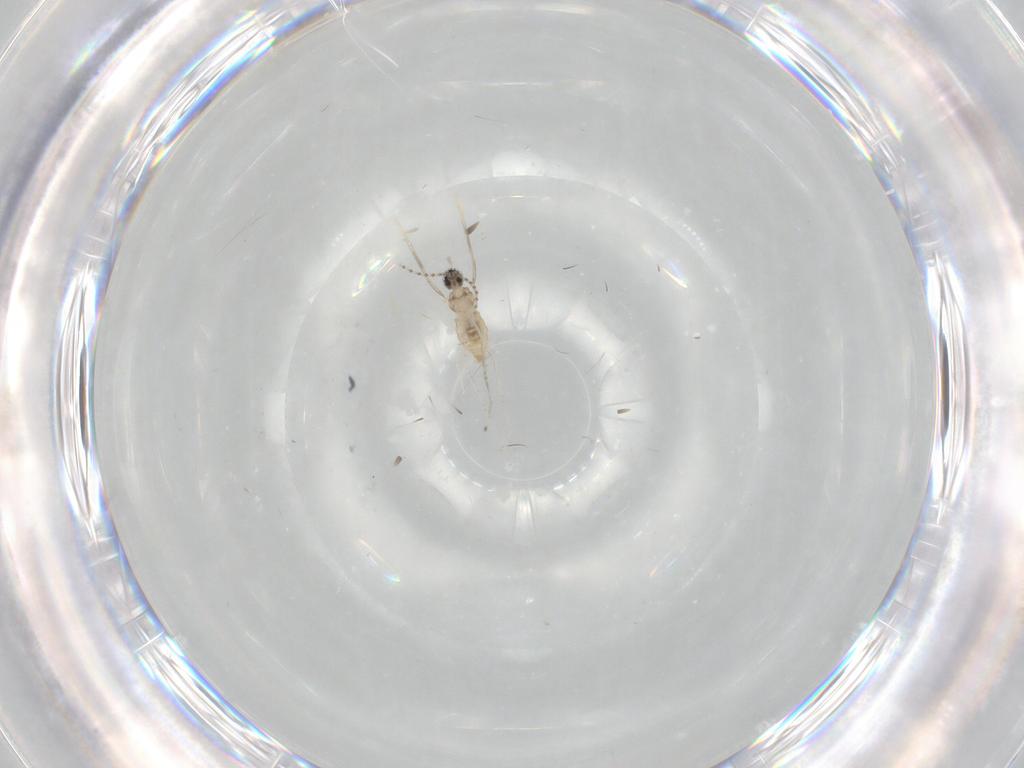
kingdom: Animalia
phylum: Arthropoda
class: Insecta
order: Diptera
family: Cecidomyiidae
